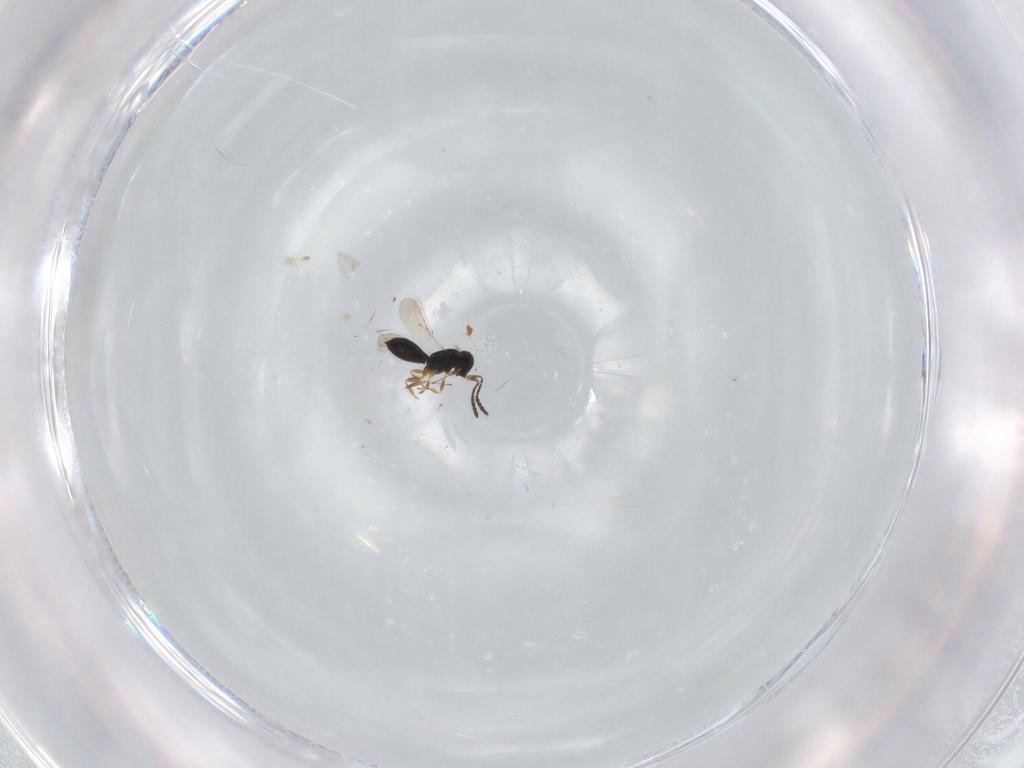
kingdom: Animalia
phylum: Arthropoda
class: Insecta
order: Hymenoptera
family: Scelionidae
